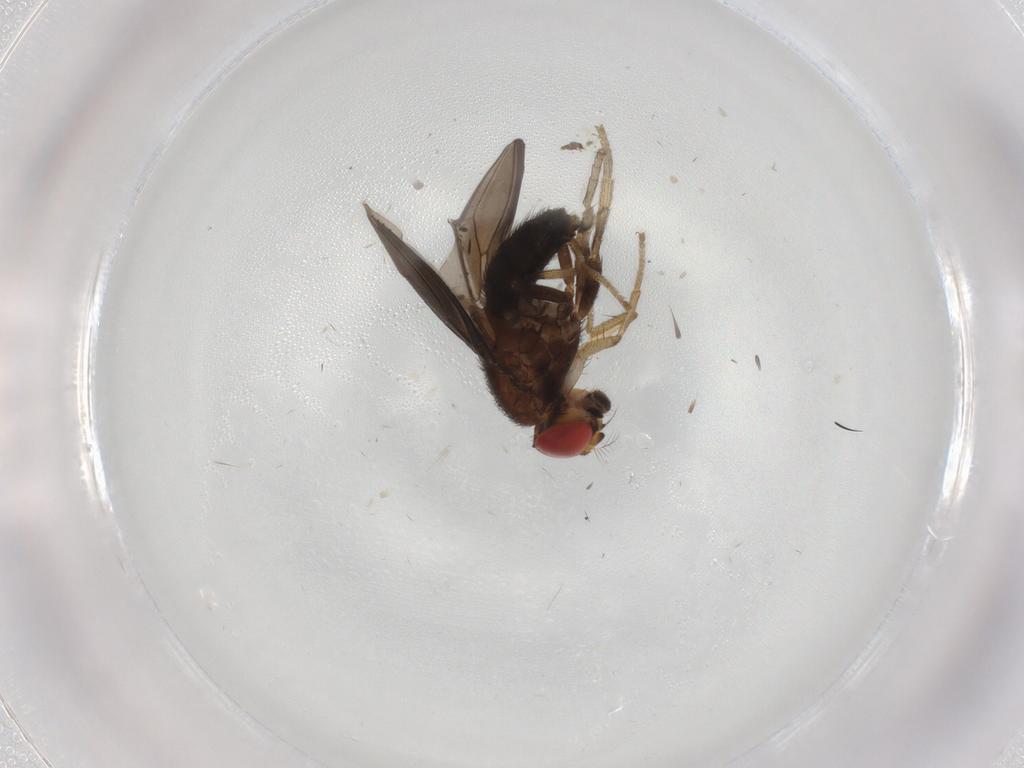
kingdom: Animalia
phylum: Arthropoda
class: Insecta
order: Diptera
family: Drosophilidae
